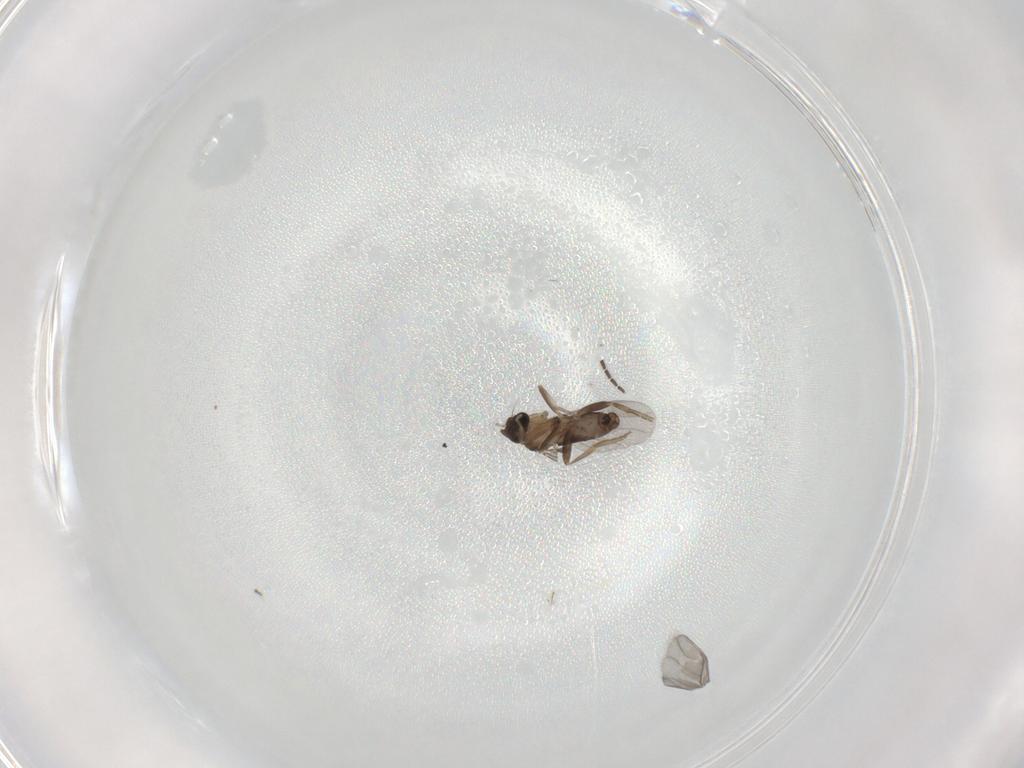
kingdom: Animalia
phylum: Arthropoda
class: Insecta
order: Diptera
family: Sciaridae
